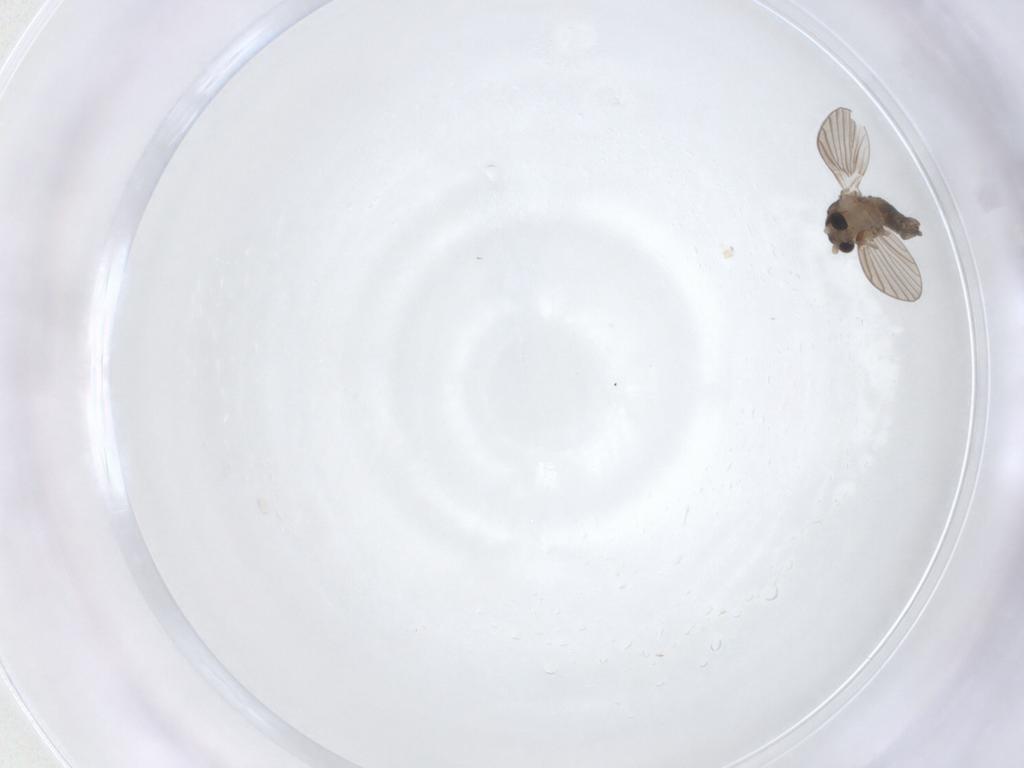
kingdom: Animalia
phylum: Arthropoda
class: Insecta
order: Diptera
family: Psychodidae
